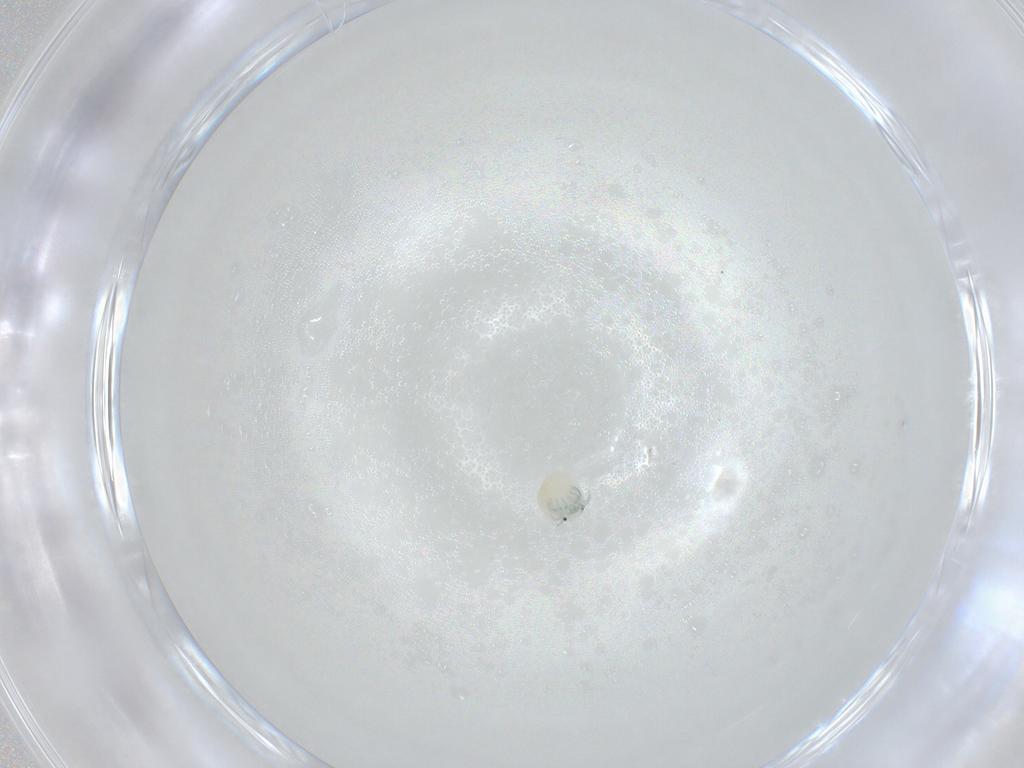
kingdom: Animalia
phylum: Arthropoda
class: Arachnida
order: Trombidiformes
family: Arrenuridae
